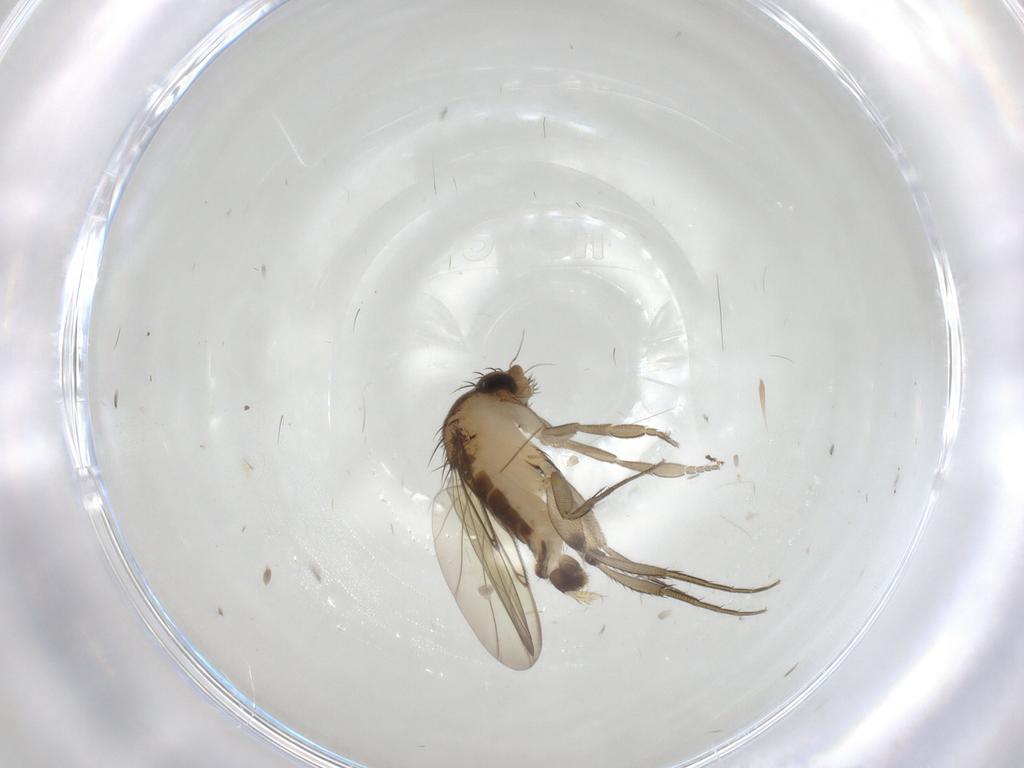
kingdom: Animalia
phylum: Arthropoda
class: Insecta
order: Diptera
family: Phoridae
